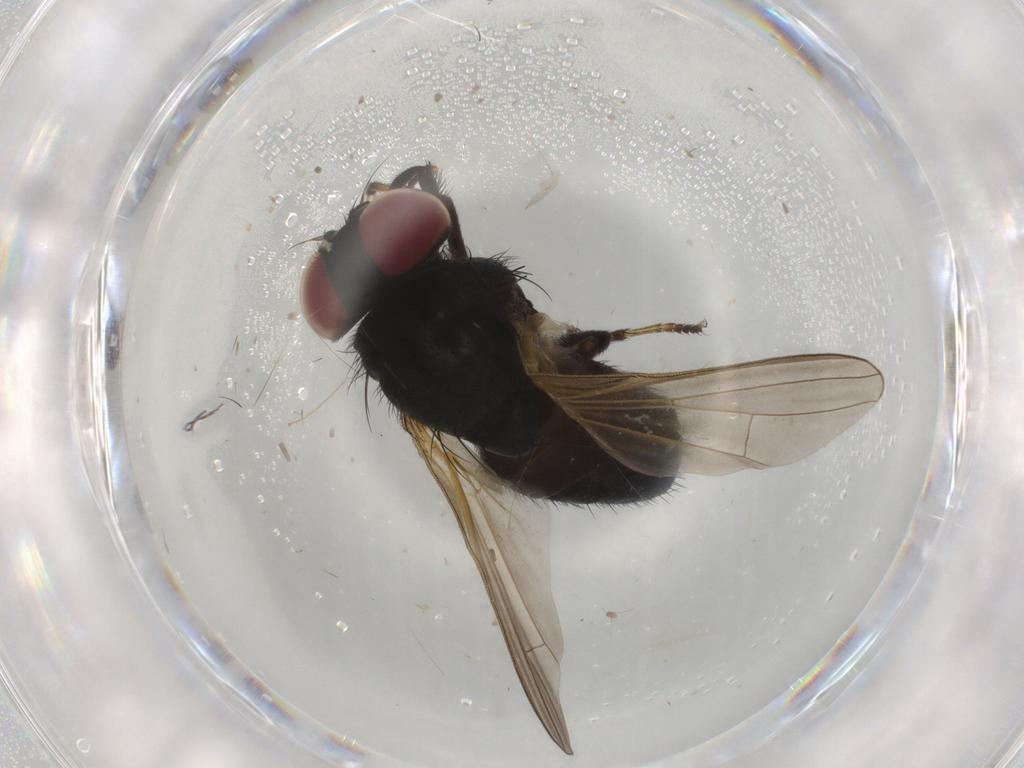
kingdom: Animalia
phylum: Arthropoda
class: Insecta
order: Diptera
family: Lonchaeidae
